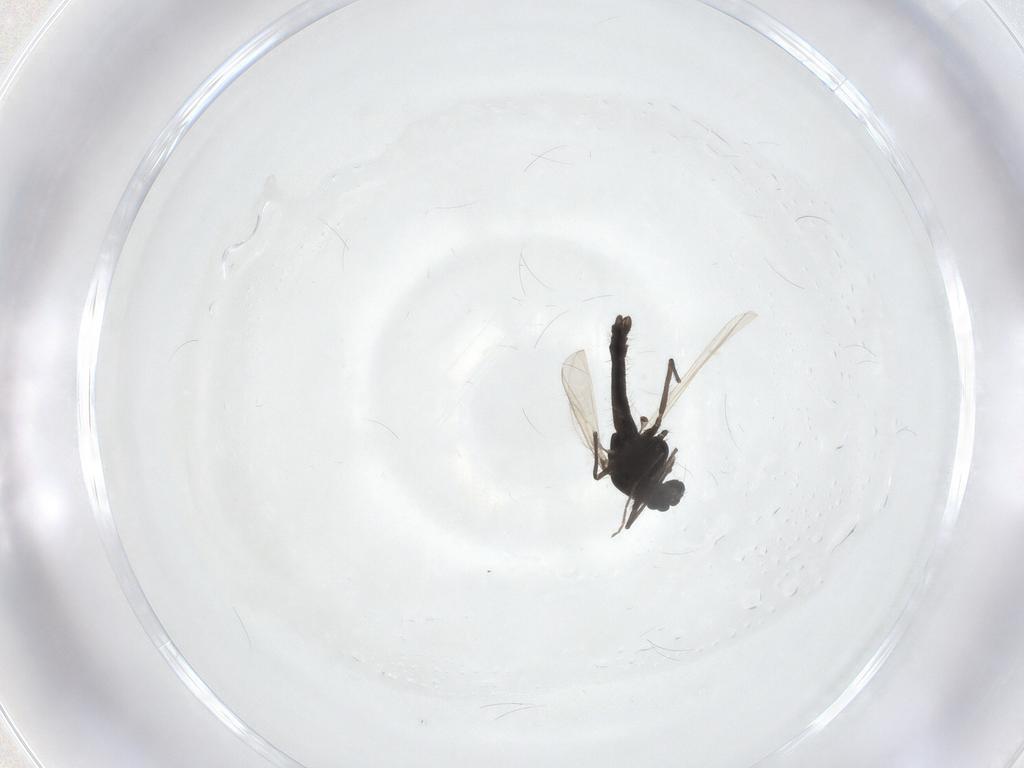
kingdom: Animalia
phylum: Arthropoda
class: Insecta
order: Diptera
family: Chironomidae
